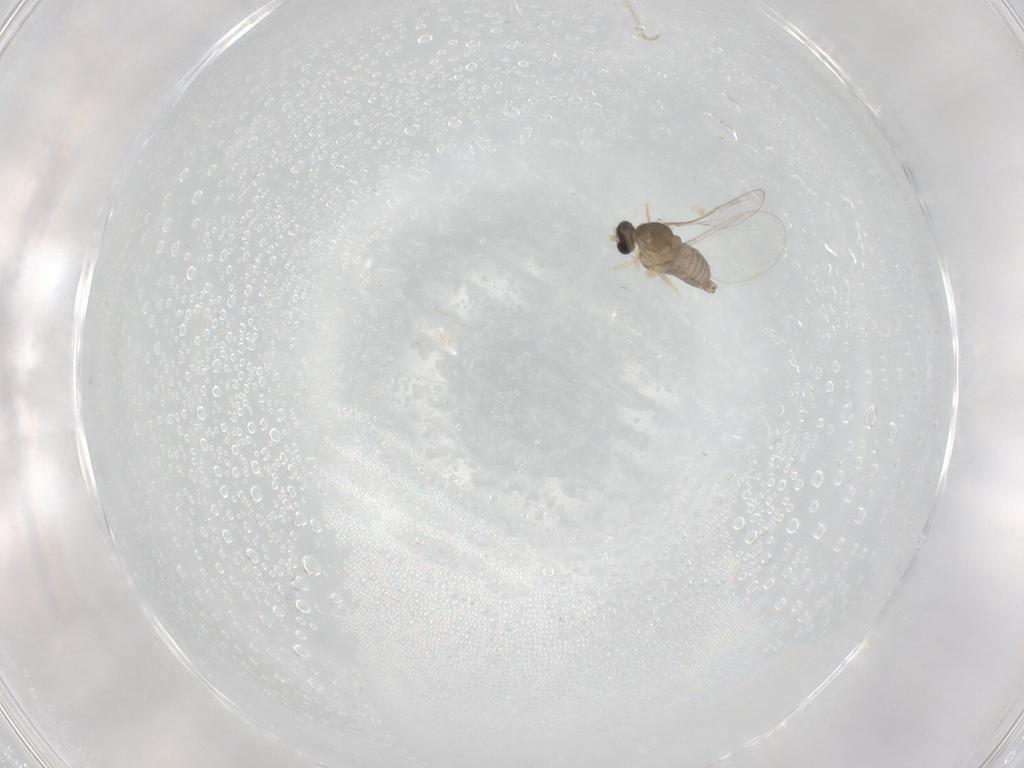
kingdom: Animalia
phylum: Arthropoda
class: Insecta
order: Diptera
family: Cecidomyiidae
